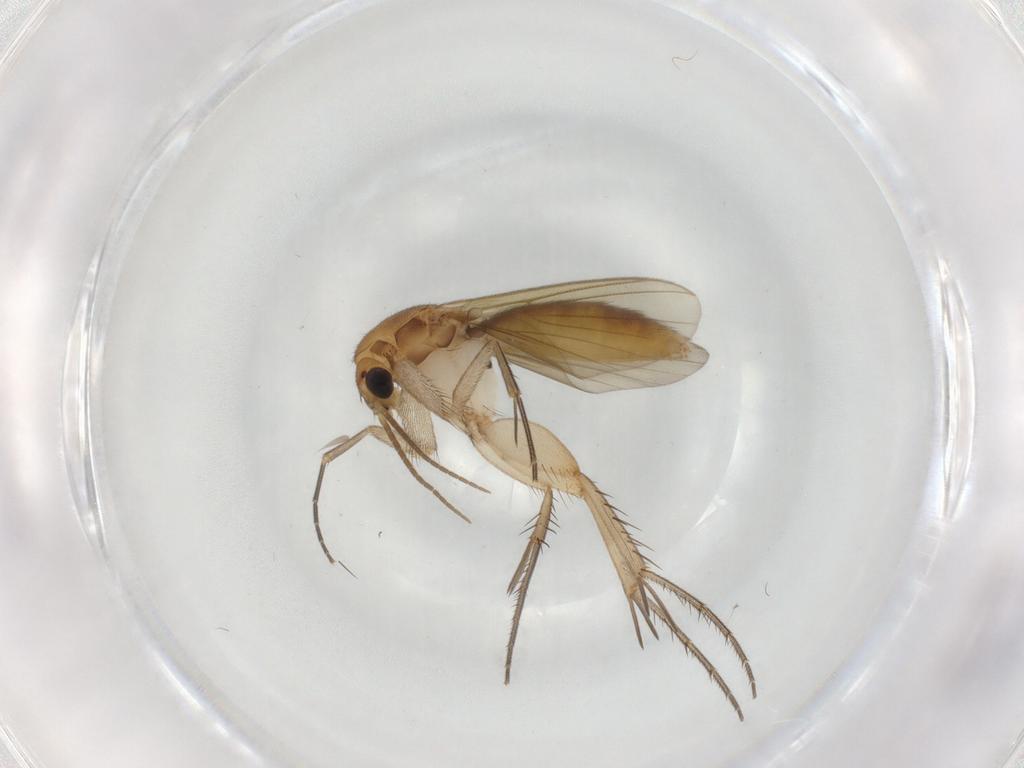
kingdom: Animalia
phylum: Arthropoda
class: Insecta
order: Diptera
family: Mycetophilidae
